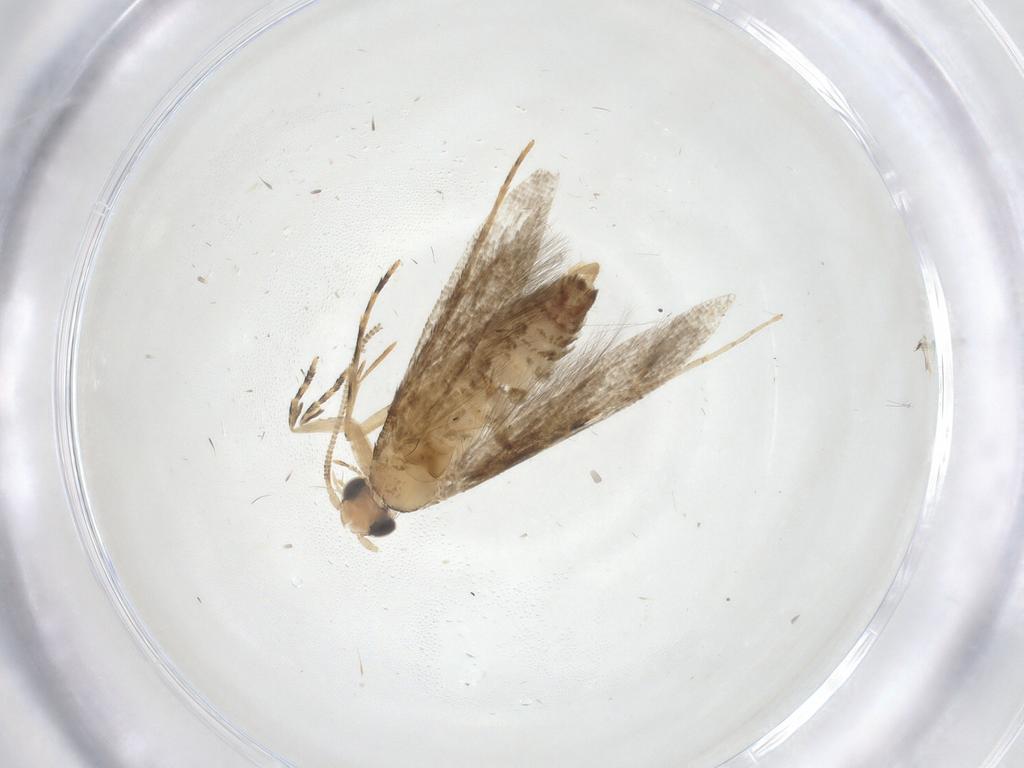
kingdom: Animalia
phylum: Arthropoda
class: Insecta
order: Lepidoptera
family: Tineidae
